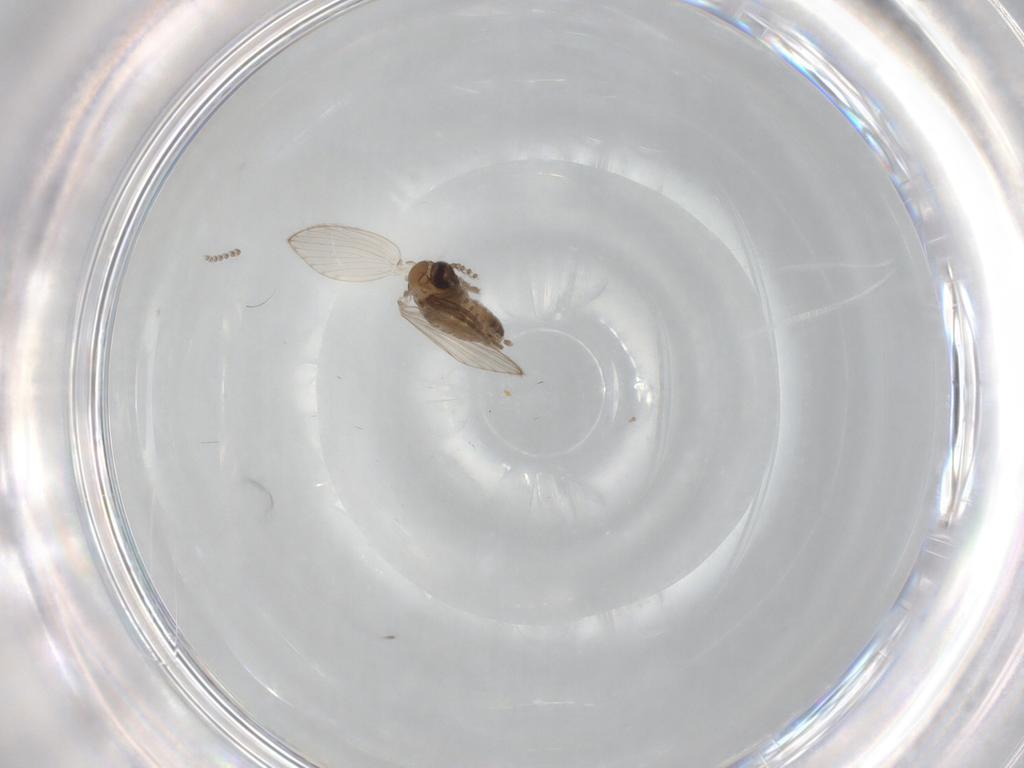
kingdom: Animalia
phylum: Arthropoda
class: Insecta
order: Diptera
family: Psychodidae
